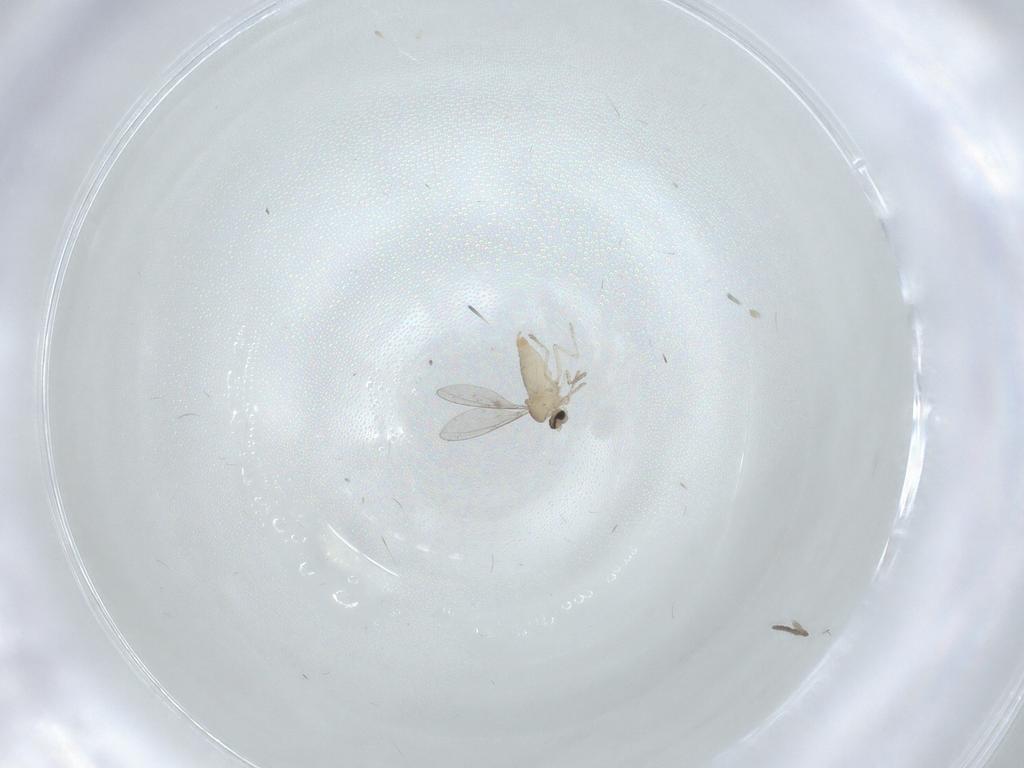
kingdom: Animalia
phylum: Arthropoda
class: Insecta
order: Diptera
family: Cecidomyiidae
